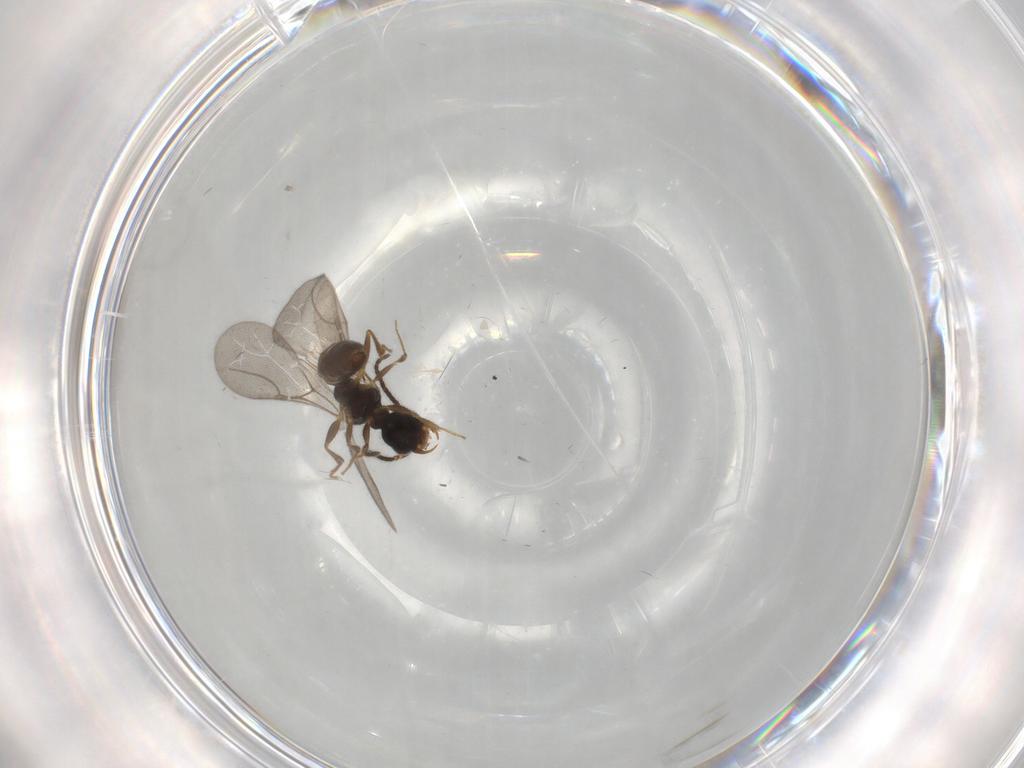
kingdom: Animalia
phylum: Arthropoda
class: Insecta
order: Hymenoptera
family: Bethylidae
